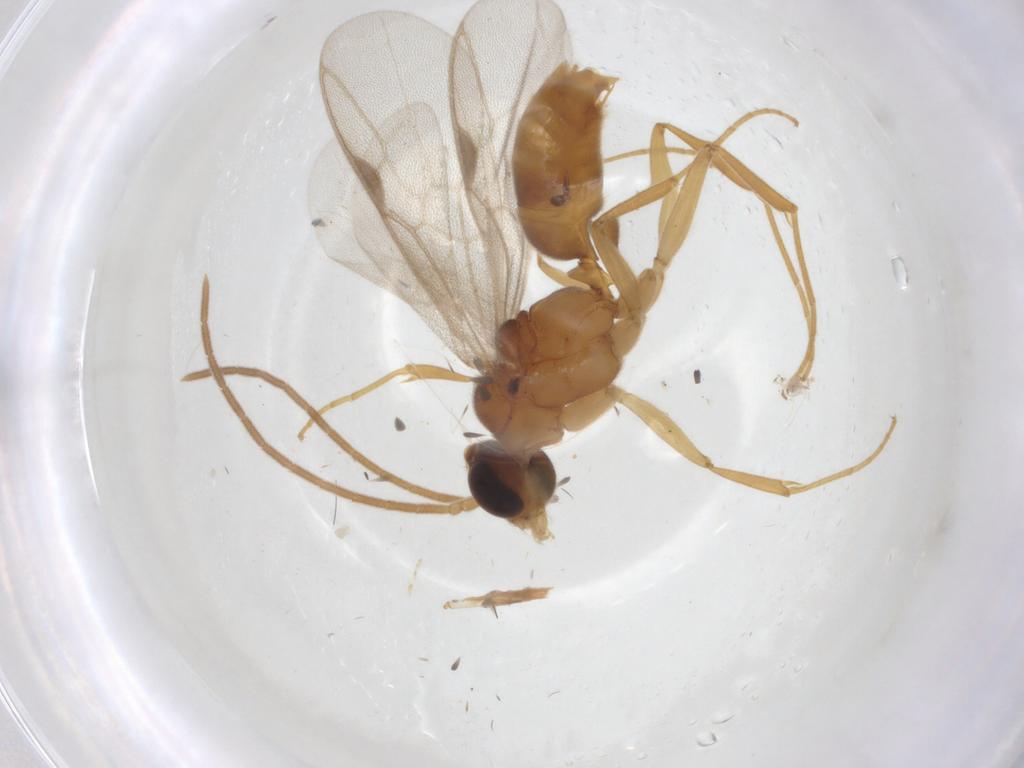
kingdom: Animalia
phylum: Arthropoda
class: Insecta
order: Hymenoptera
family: Formicidae
